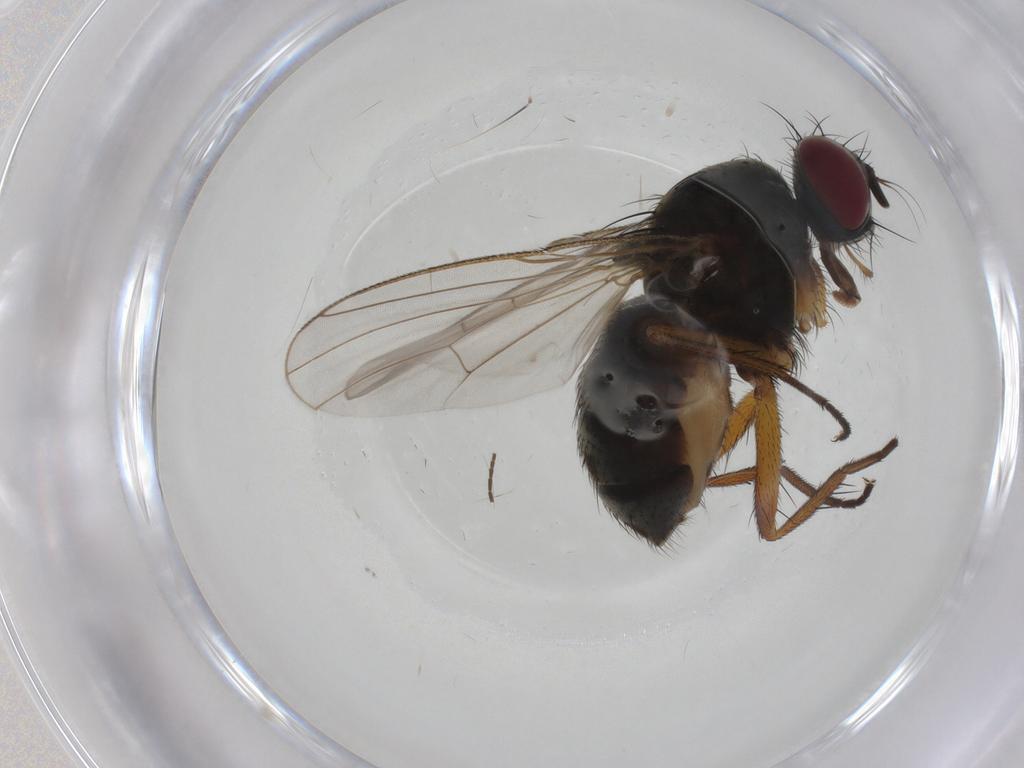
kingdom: Animalia
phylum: Arthropoda
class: Insecta
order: Diptera
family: Muscidae
